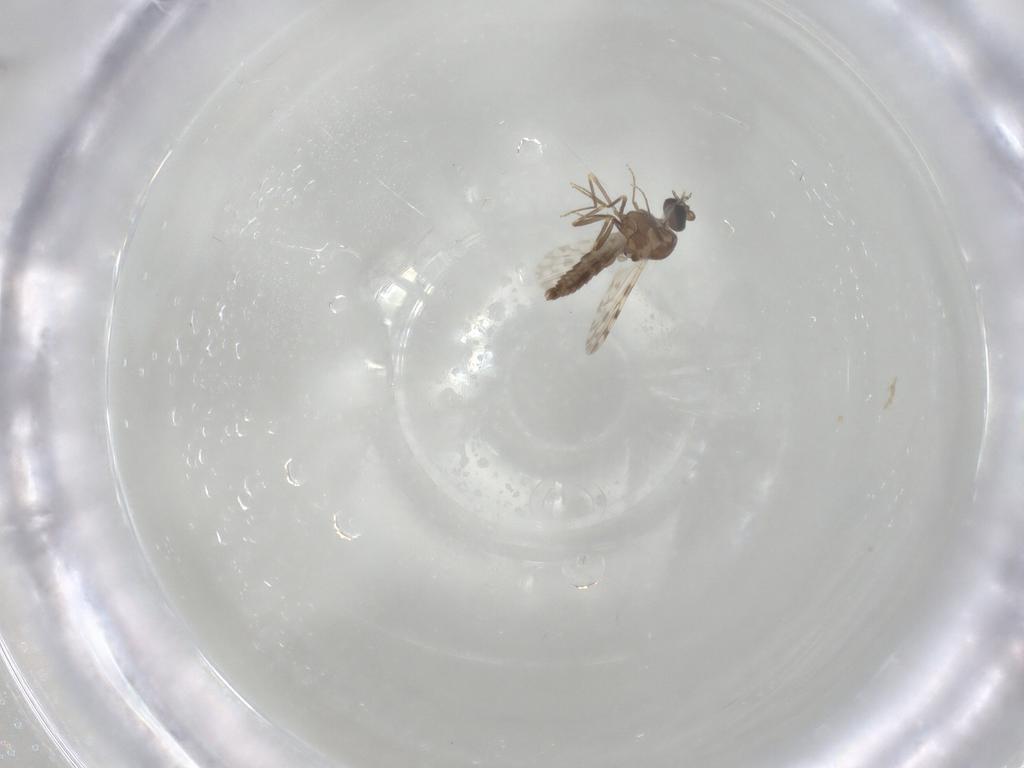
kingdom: Animalia
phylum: Arthropoda
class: Insecta
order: Diptera
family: Ceratopogonidae
